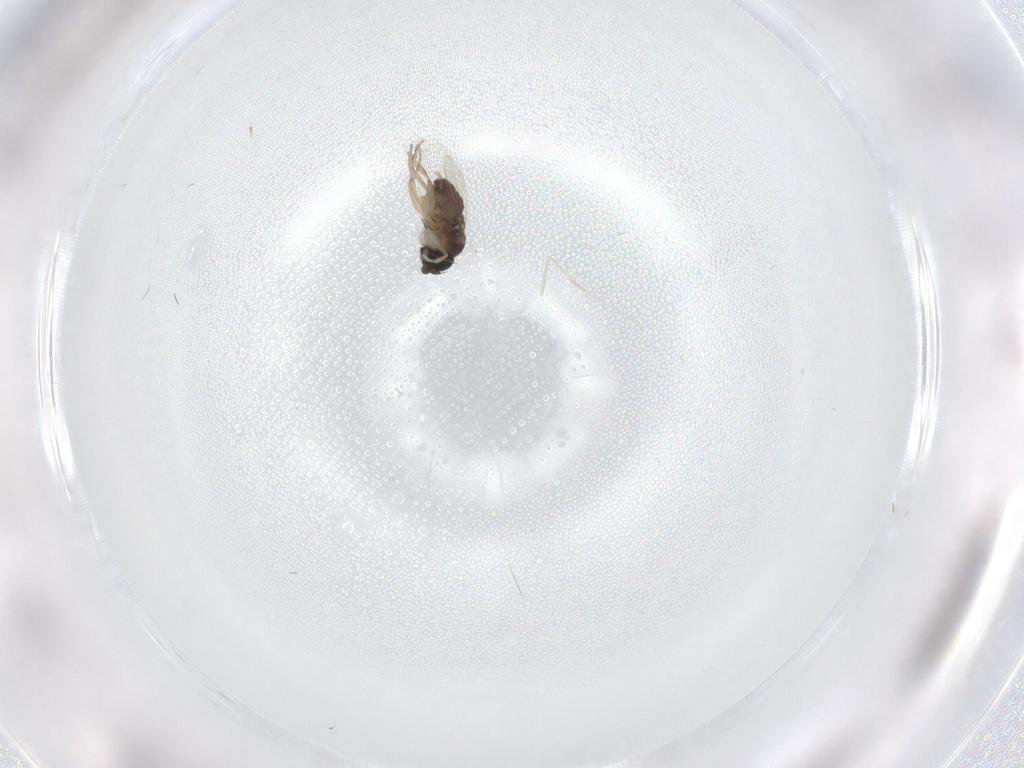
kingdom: Animalia
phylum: Arthropoda
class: Insecta
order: Diptera
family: Phoridae
